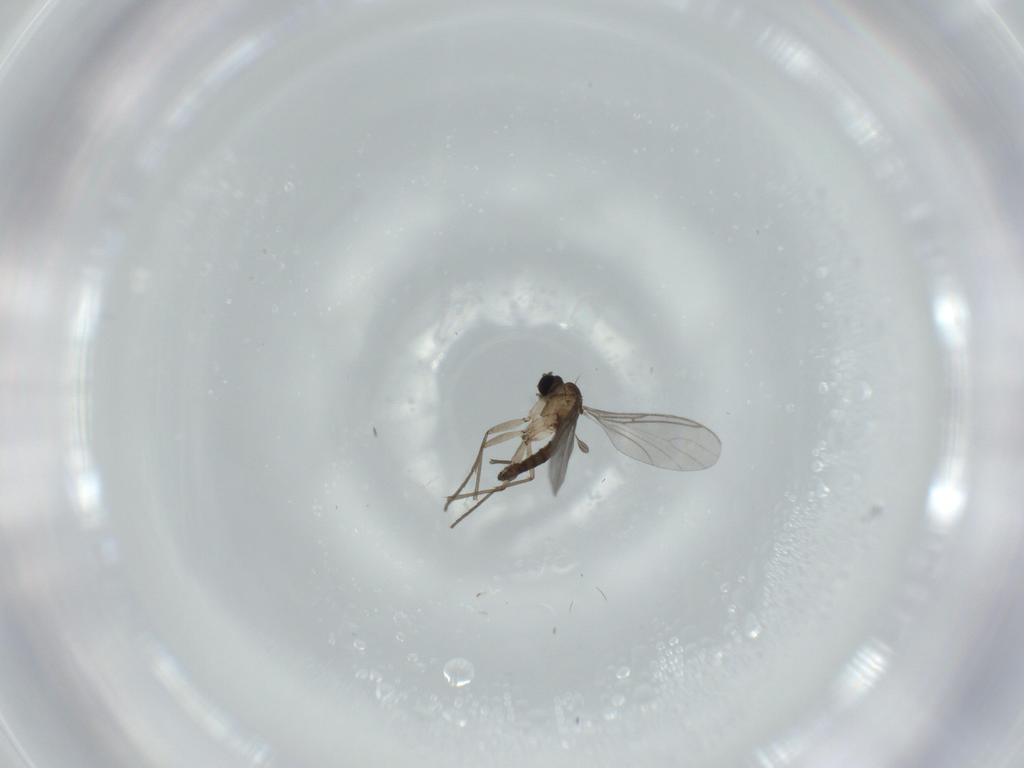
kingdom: Animalia
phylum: Arthropoda
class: Insecta
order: Diptera
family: Sciaridae
